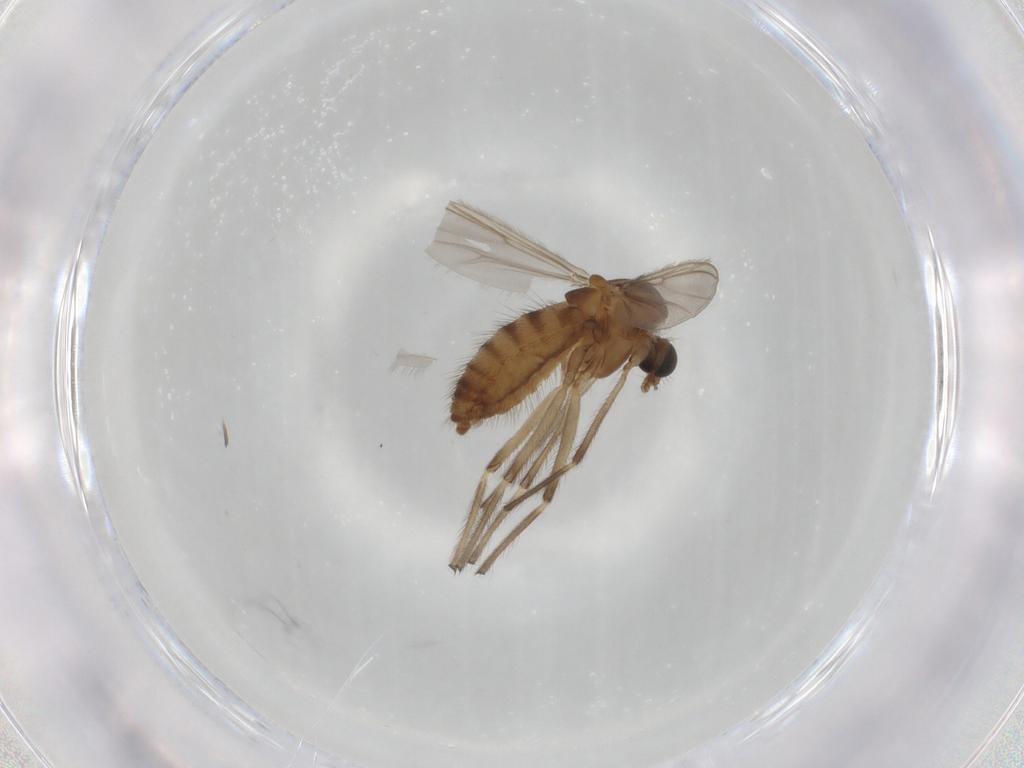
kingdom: Animalia
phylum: Arthropoda
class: Insecta
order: Diptera
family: Chironomidae
